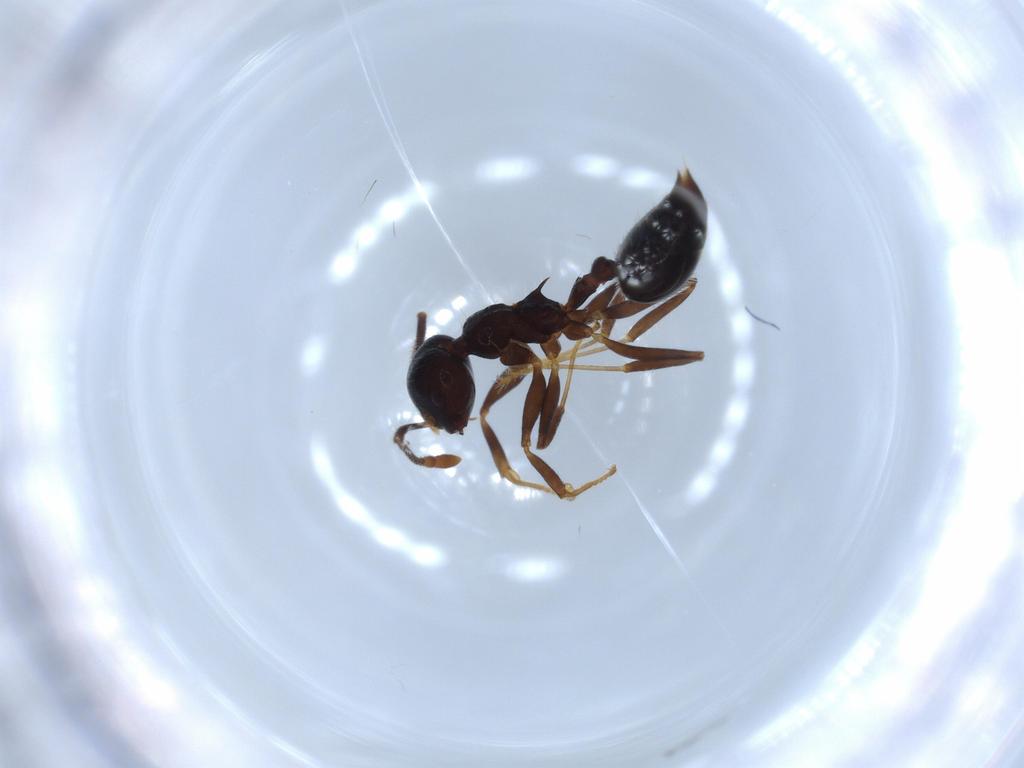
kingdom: Animalia
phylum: Arthropoda
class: Insecta
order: Hymenoptera
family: Formicidae
